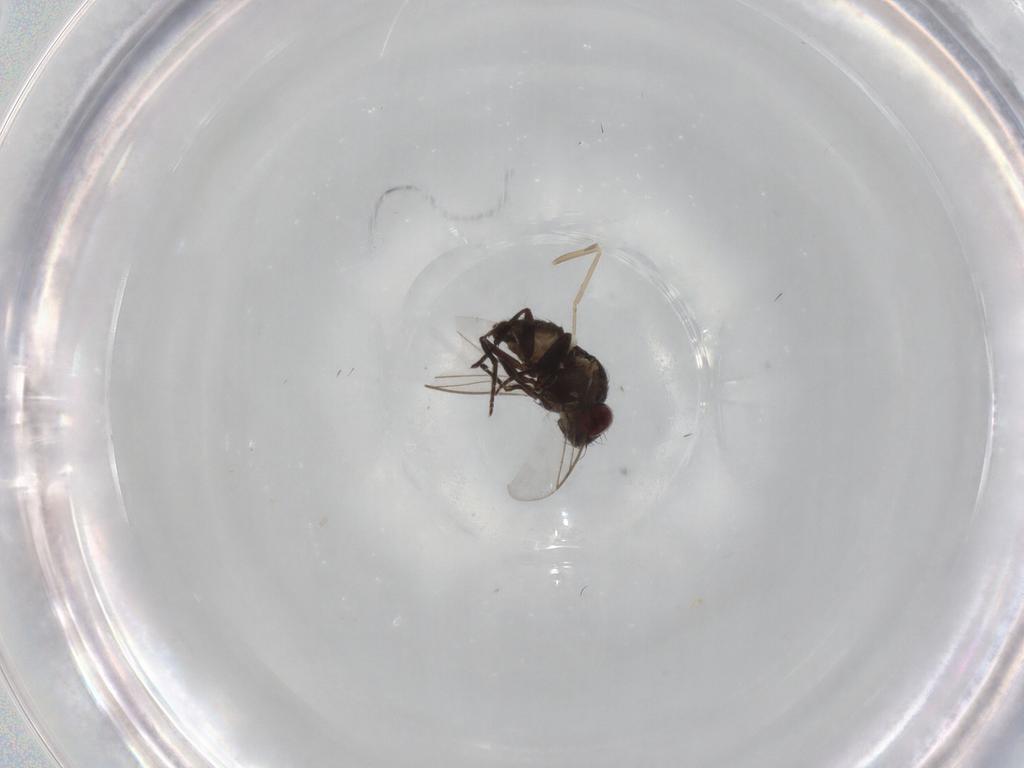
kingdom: Animalia
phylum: Arthropoda
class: Insecta
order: Diptera
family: Cecidomyiidae
